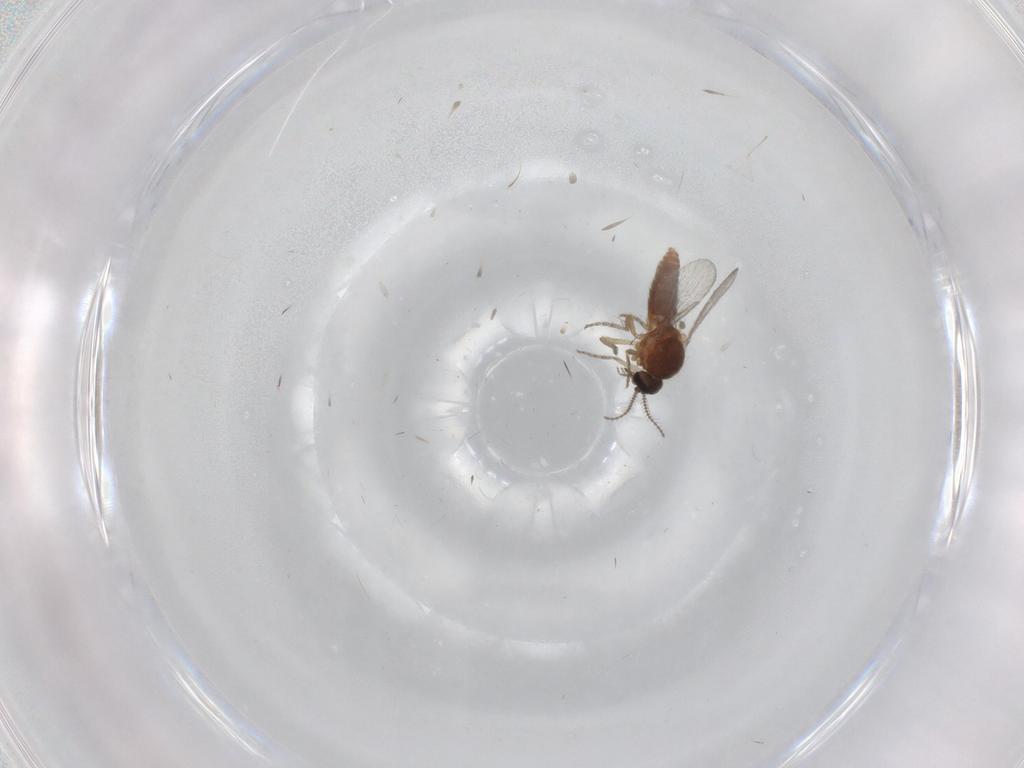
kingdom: Animalia
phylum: Arthropoda
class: Insecta
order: Diptera
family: Ceratopogonidae
